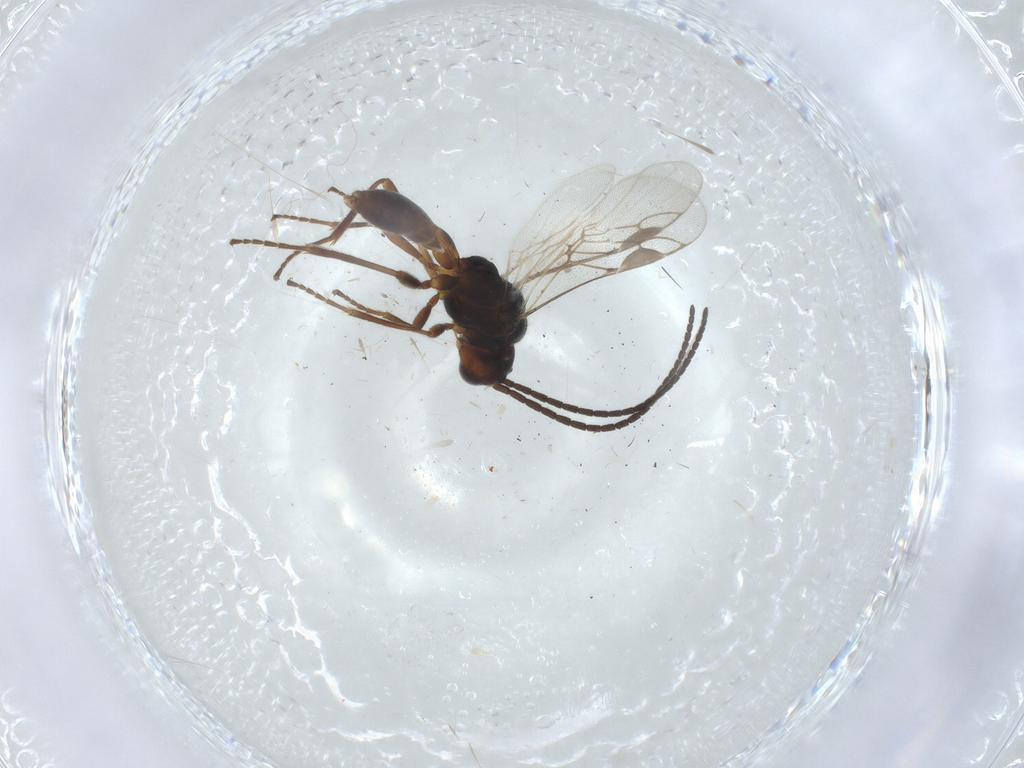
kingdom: Animalia
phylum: Arthropoda
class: Insecta
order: Hymenoptera
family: Braconidae
